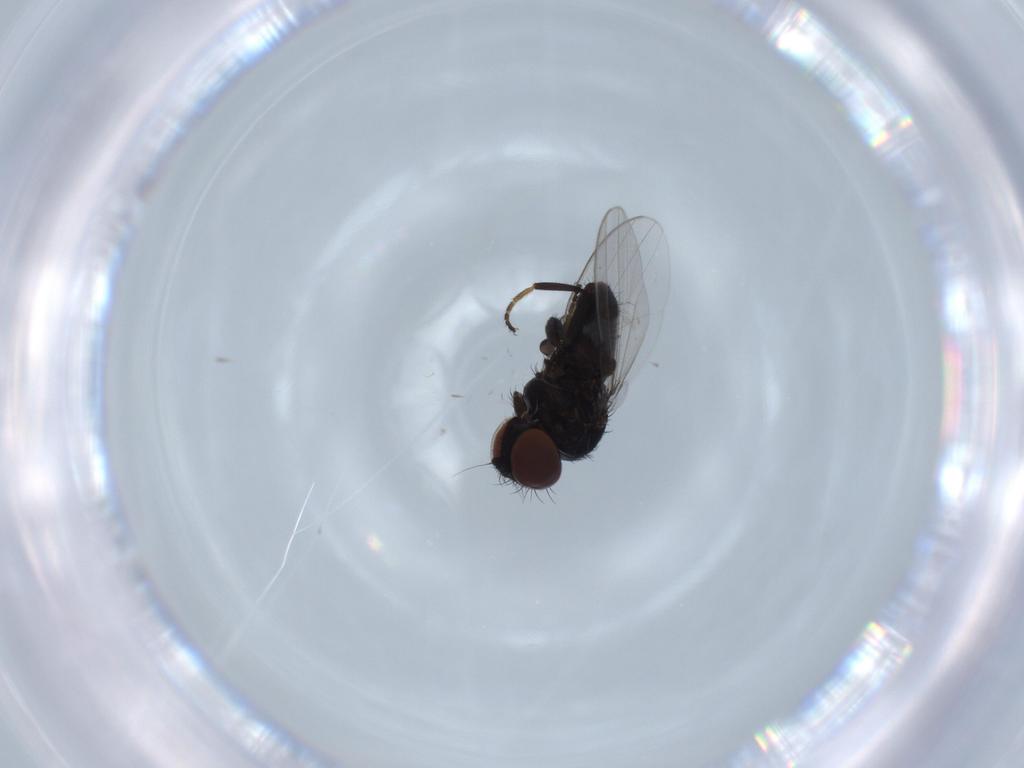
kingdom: Animalia
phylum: Arthropoda
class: Insecta
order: Diptera
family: Milichiidae
